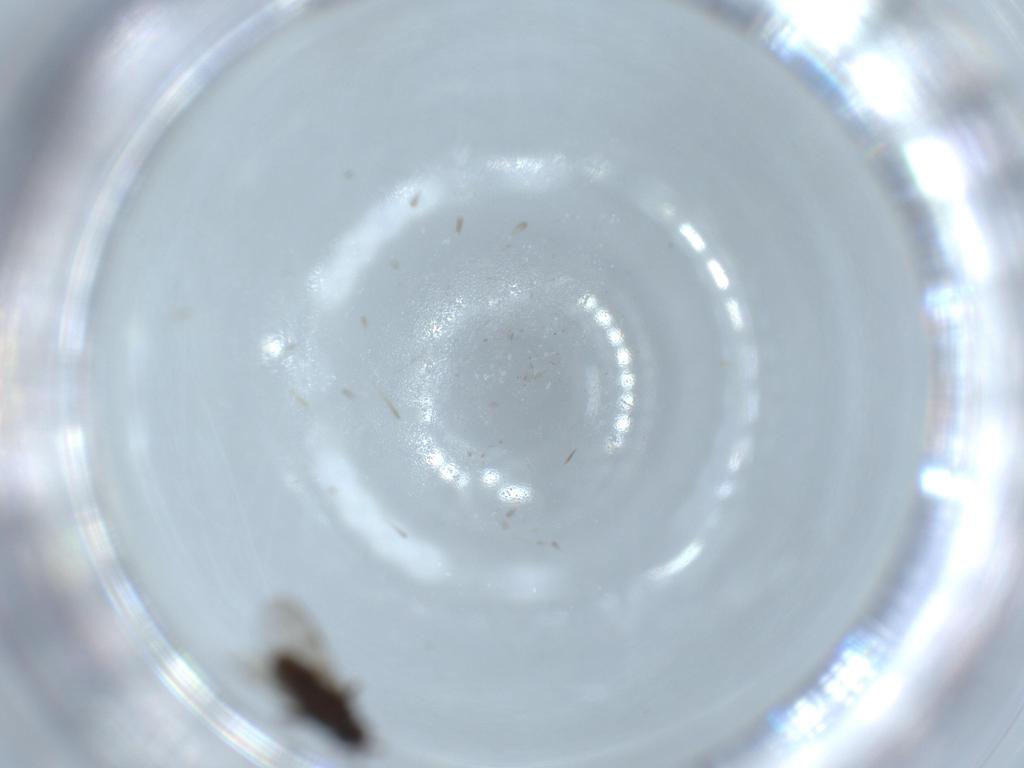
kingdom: Animalia
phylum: Arthropoda
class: Insecta
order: Diptera
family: Sphaeroceridae
